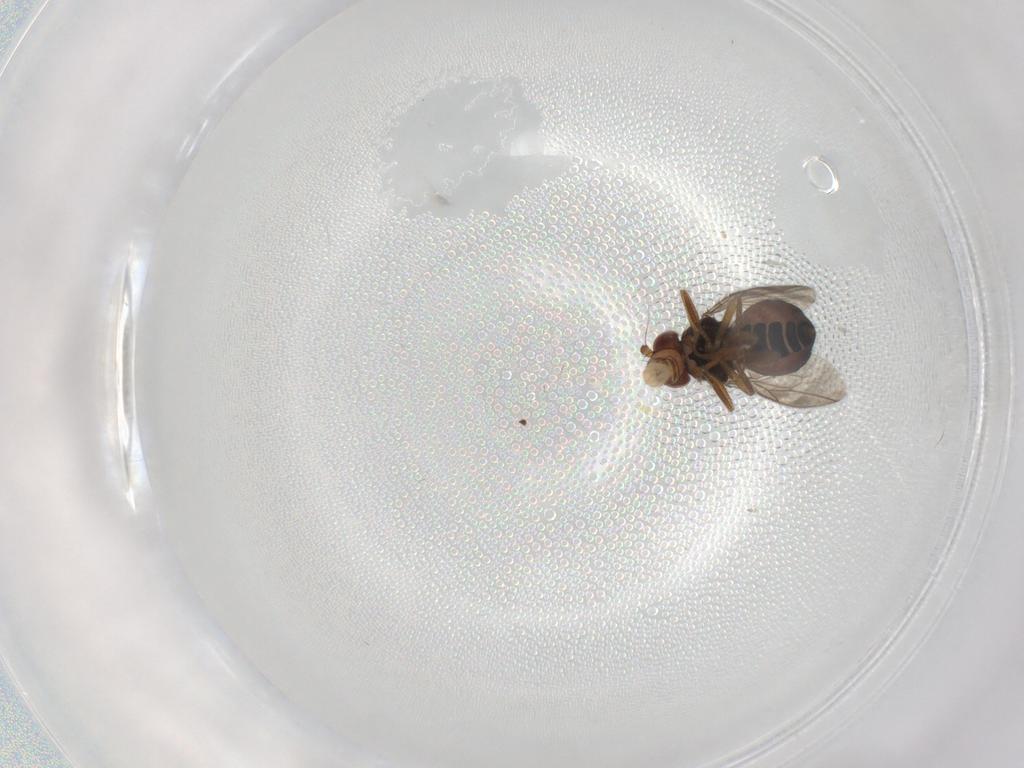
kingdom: Animalia
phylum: Arthropoda
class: Insecta
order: Diptera
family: Sphaeroceridae
